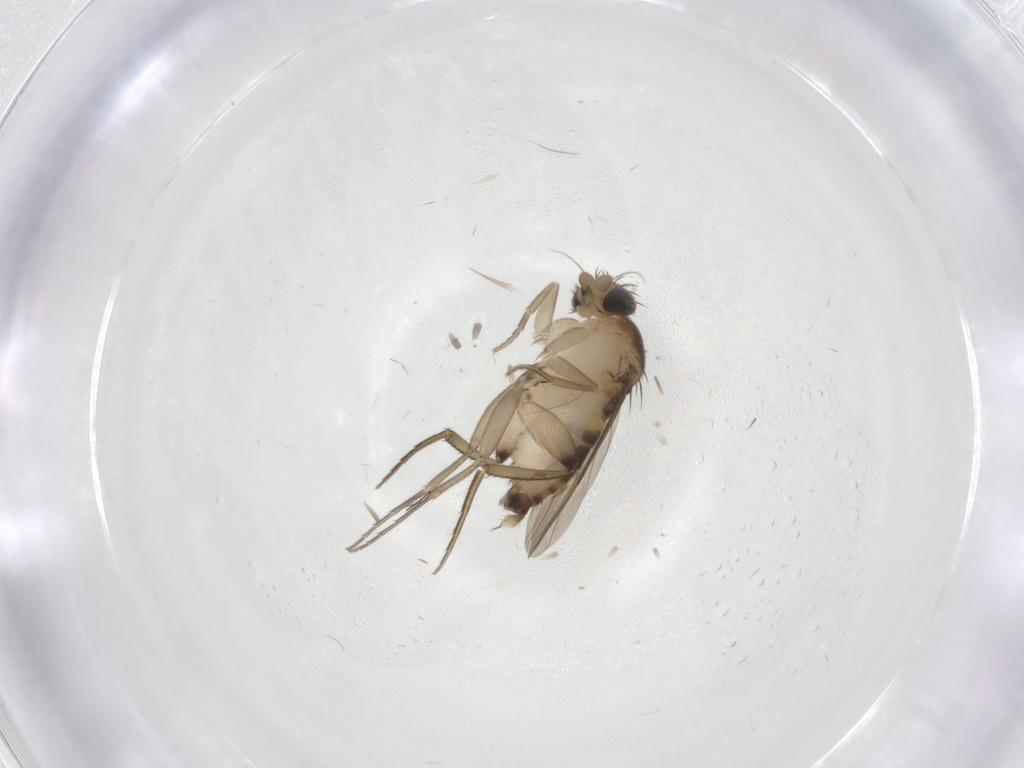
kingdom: Animalia
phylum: Arthropoda
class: Insecta
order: Diptera
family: Phoridae
